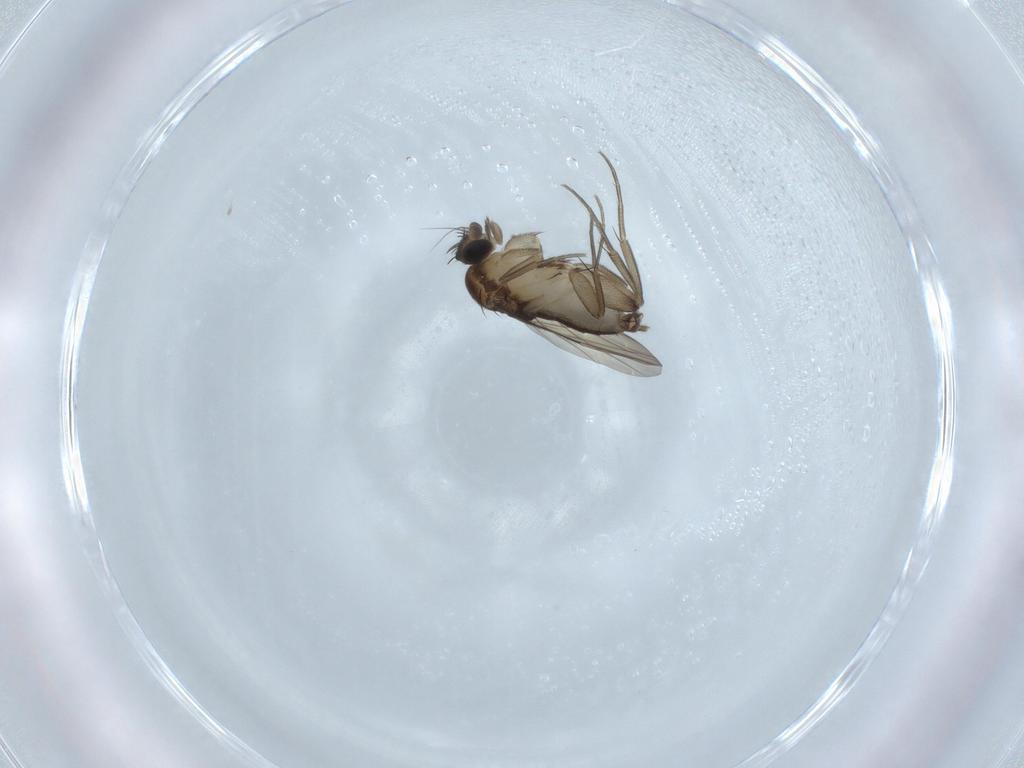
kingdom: Animalia
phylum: Arthropoda
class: Insecta
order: Diptera
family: Phoridae
